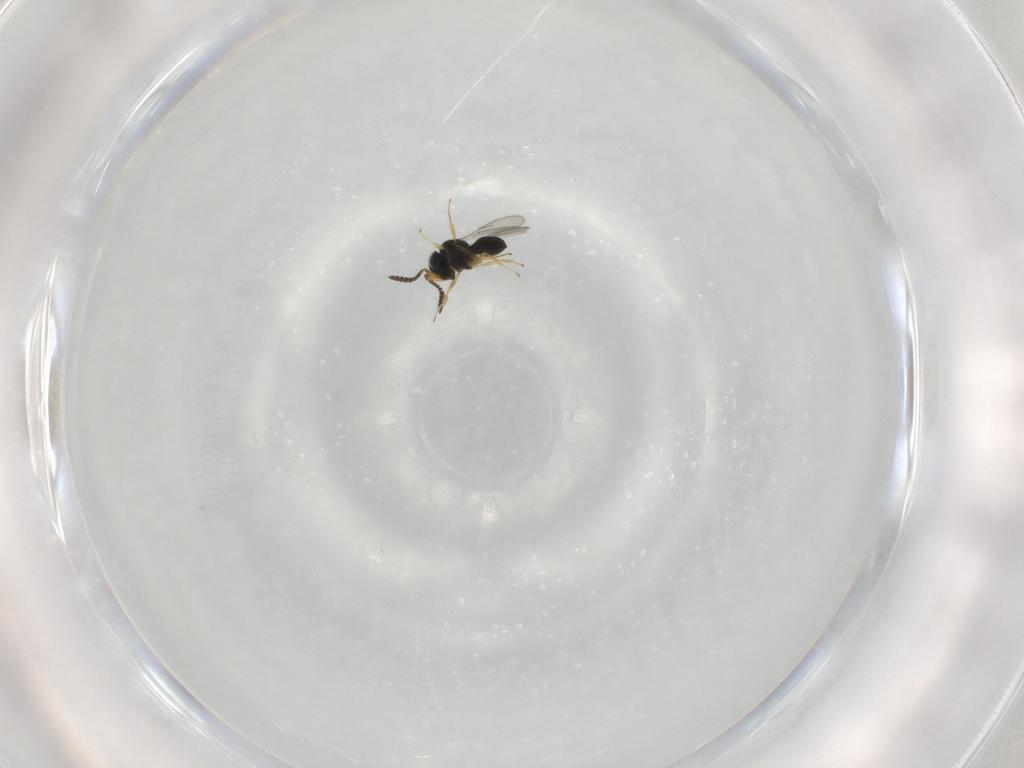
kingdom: Animalia
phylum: Arthropoda
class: Insecta
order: Hymenoptera
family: Scelionidae
